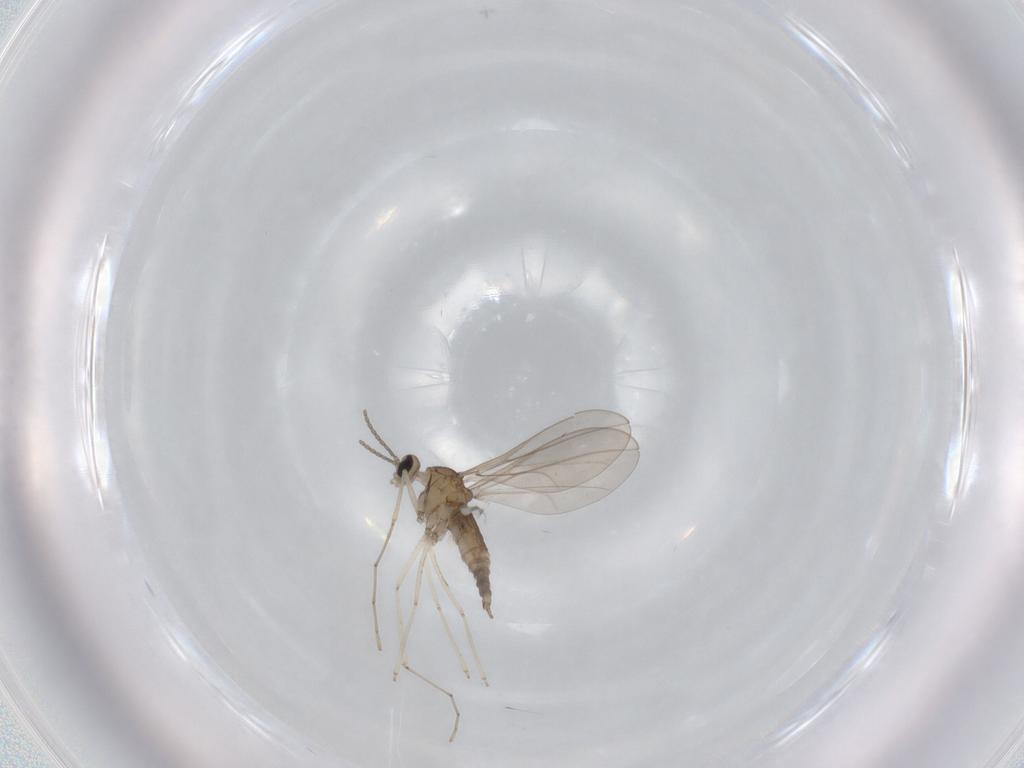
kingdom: Animalia
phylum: Arthropoda
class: Insecta
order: Diptera
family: Cecidomyiidae
